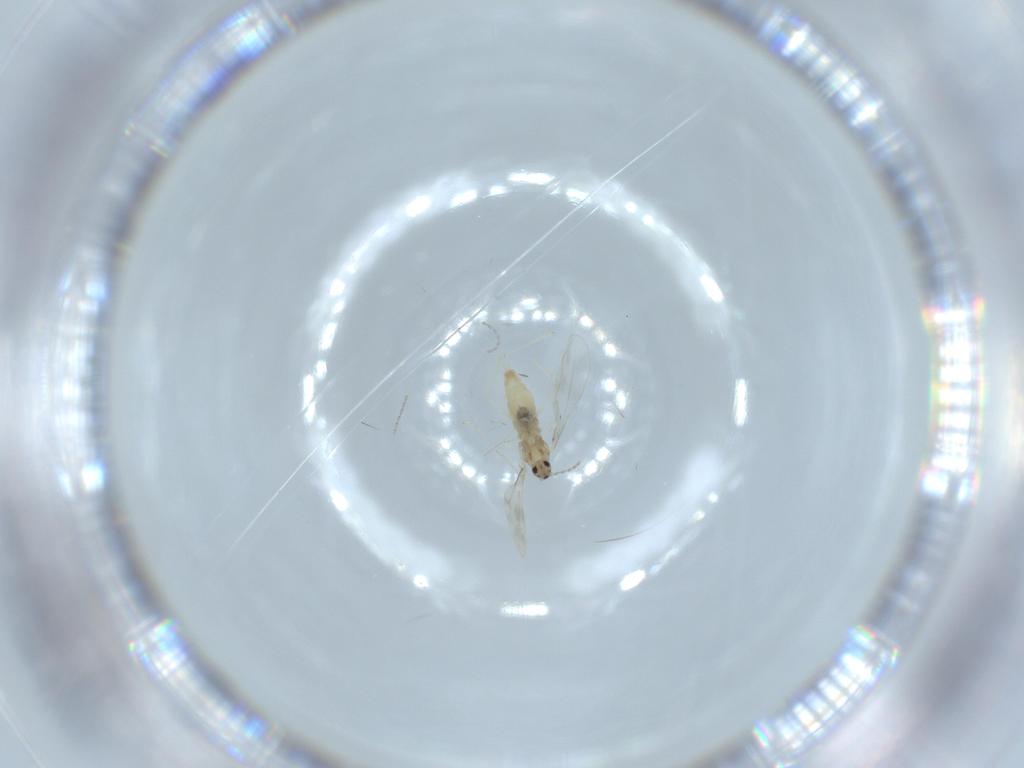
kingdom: Animalia
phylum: Arthropoda
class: Insecta
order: Diptera
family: Cecidomyiidae
